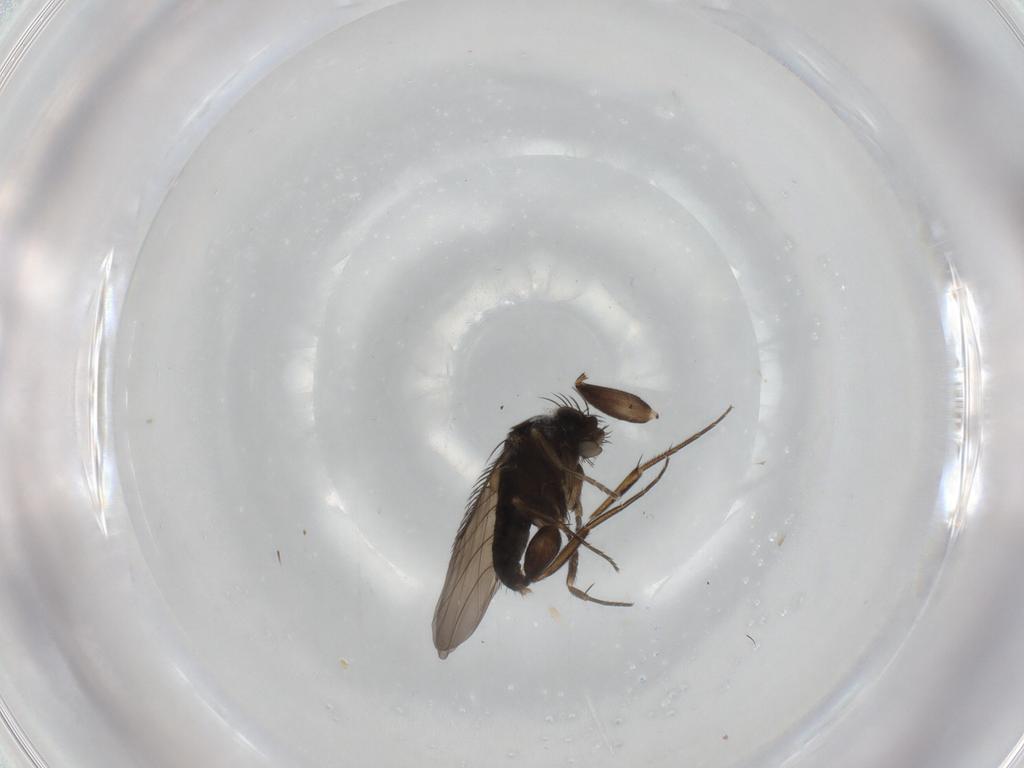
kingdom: Animalia
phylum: Arthropoda
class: Insecta
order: Diptera
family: Phoridae
